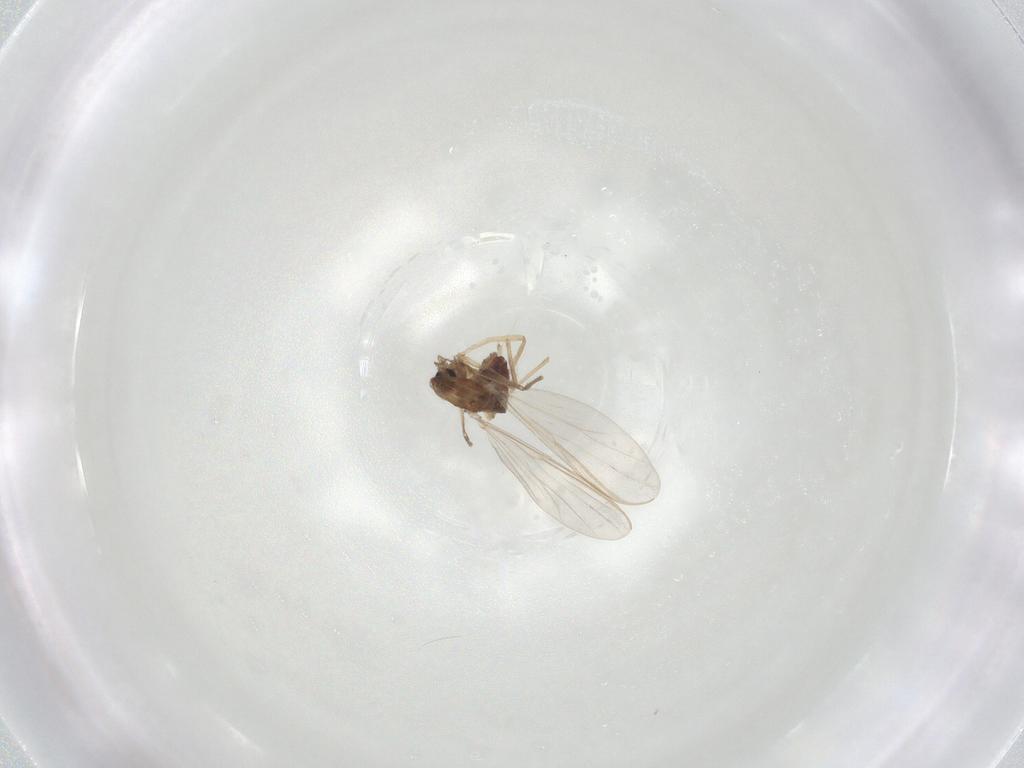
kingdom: Animalia
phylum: Arthropoda
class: Insecta
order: Diptera
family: Chironomidae
